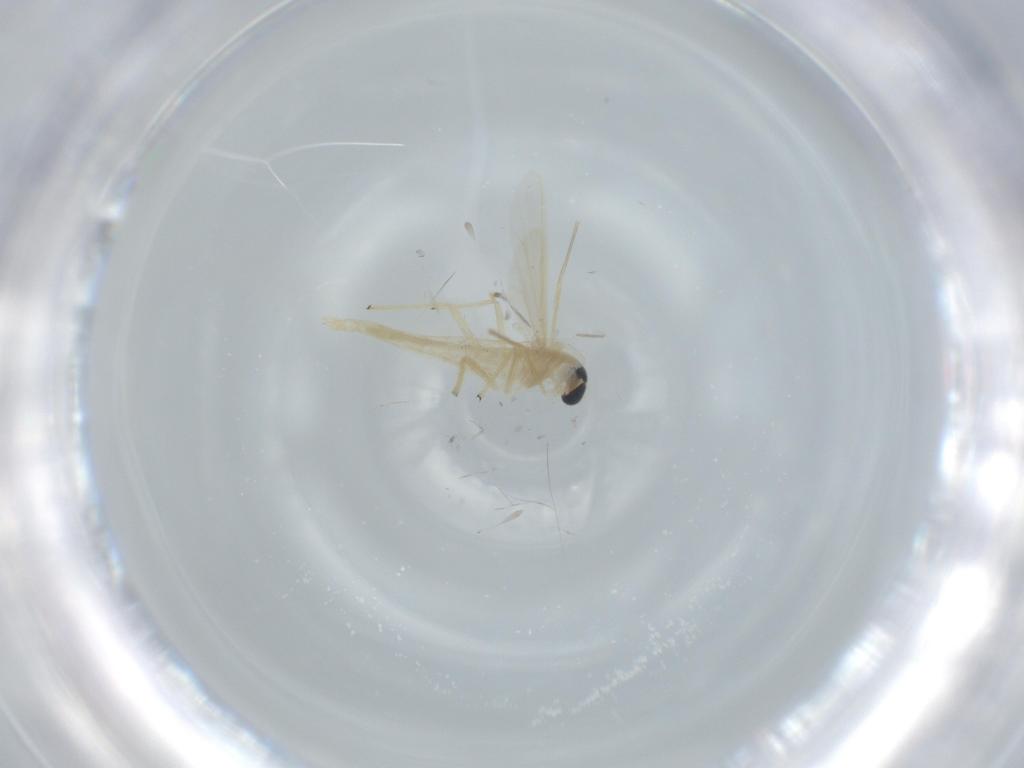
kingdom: Animalia
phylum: Arthropoda
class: Insecta
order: Diptera
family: Chironomidae
